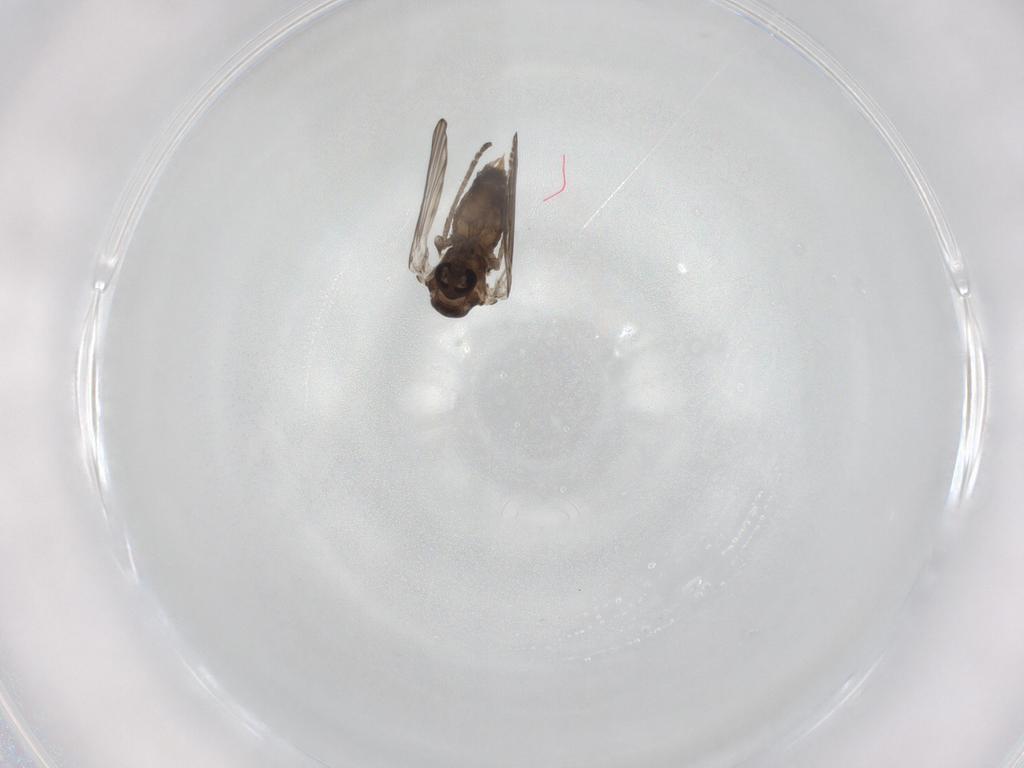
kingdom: Animalia
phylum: Arthropoda
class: Insecta
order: Diptera
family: Psychodidae
